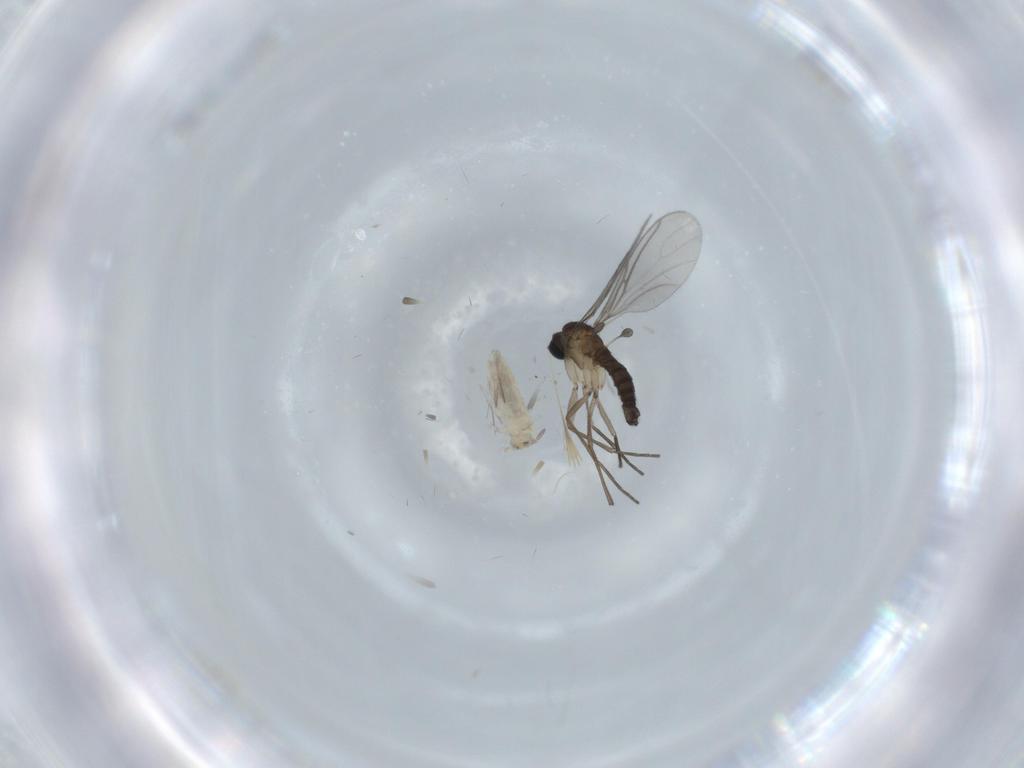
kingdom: Animalia
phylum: Arthropoda
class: Insecta
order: Diptera
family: Sciaridae
